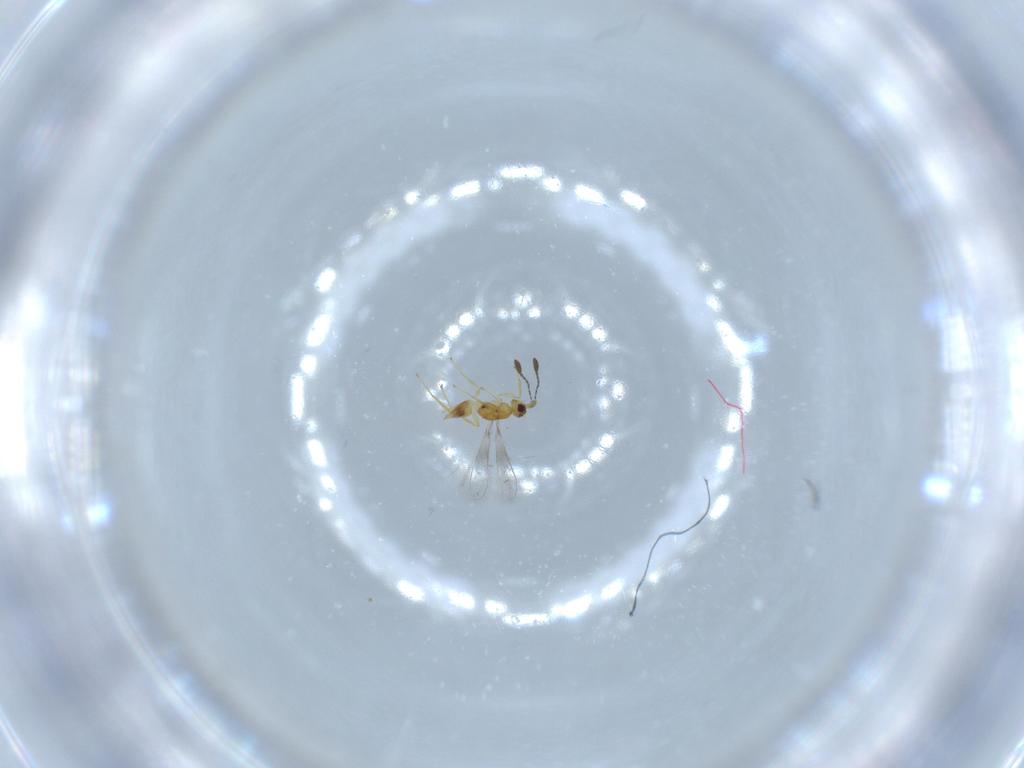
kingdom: Animalia
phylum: Arthropoda
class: Insecta
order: Hymenoptera
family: Mymaridae
